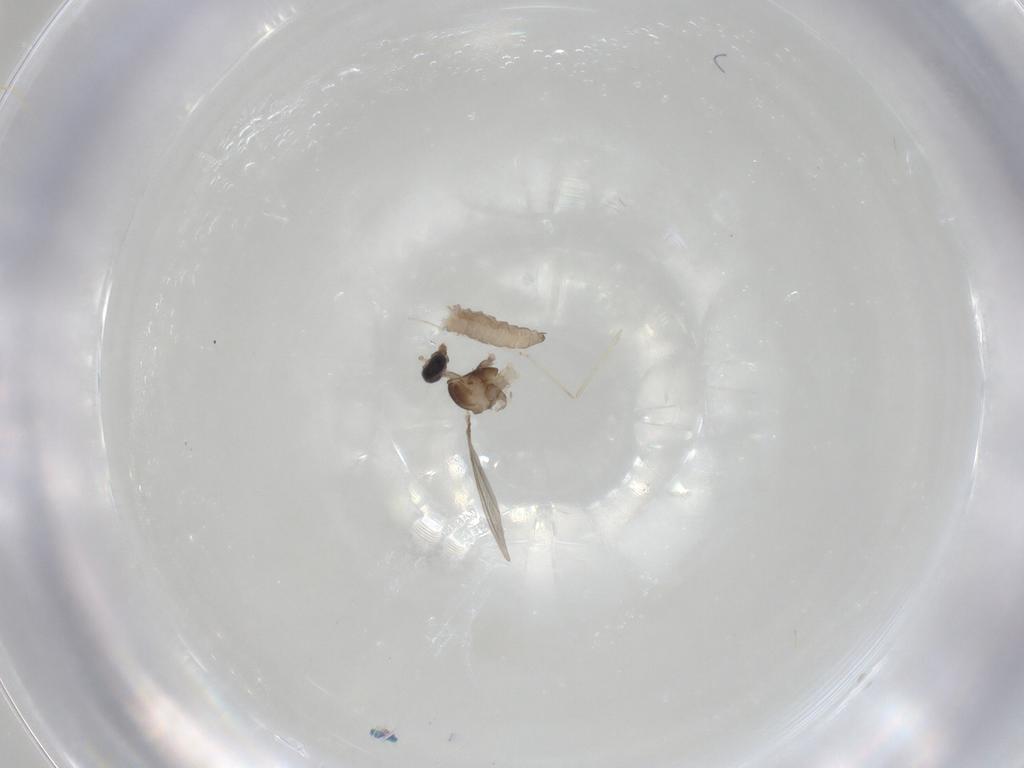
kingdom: Animalia
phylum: Arthropoda
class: Insecta
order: Diptera
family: Cecidomyiidae
